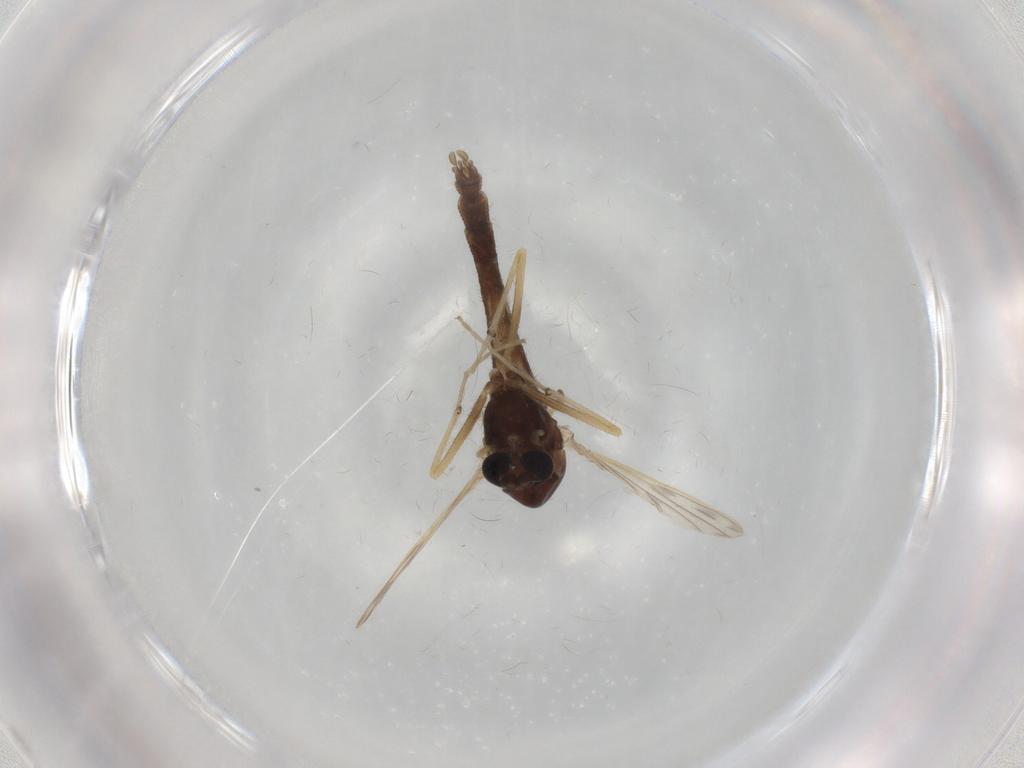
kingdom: Animalia
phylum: Arthropoda
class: Insecta
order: Diptera
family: Chironomidae
